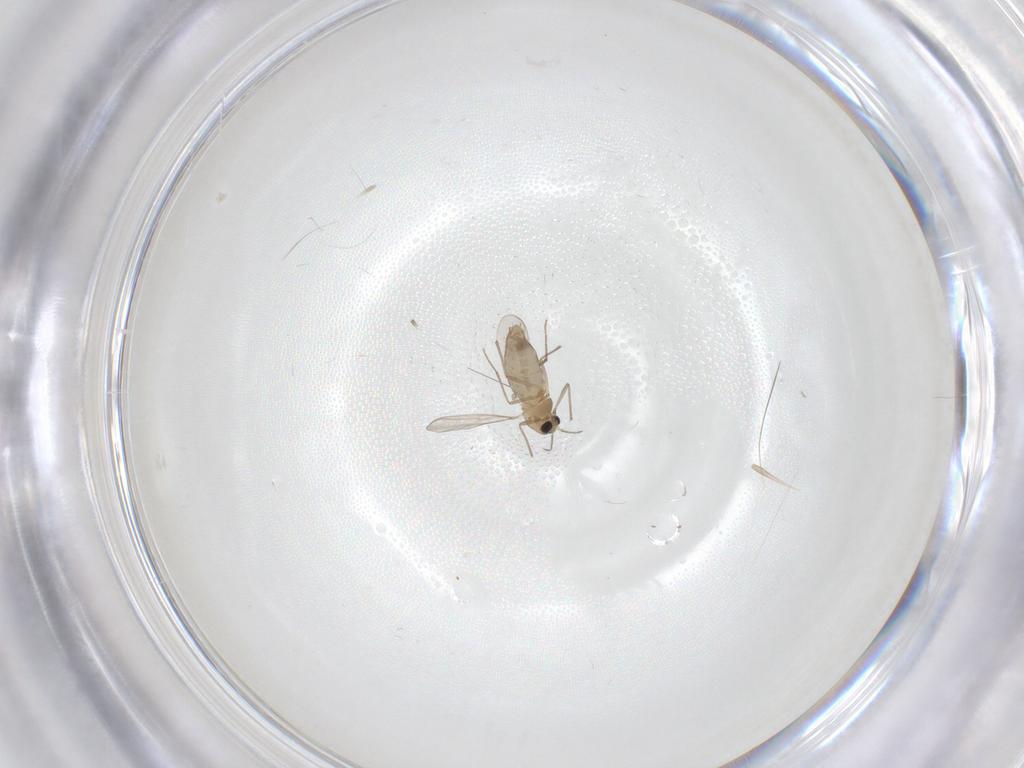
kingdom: Animalia
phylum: Arthropoda
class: Insecta
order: Diptera
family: Chironomidae
